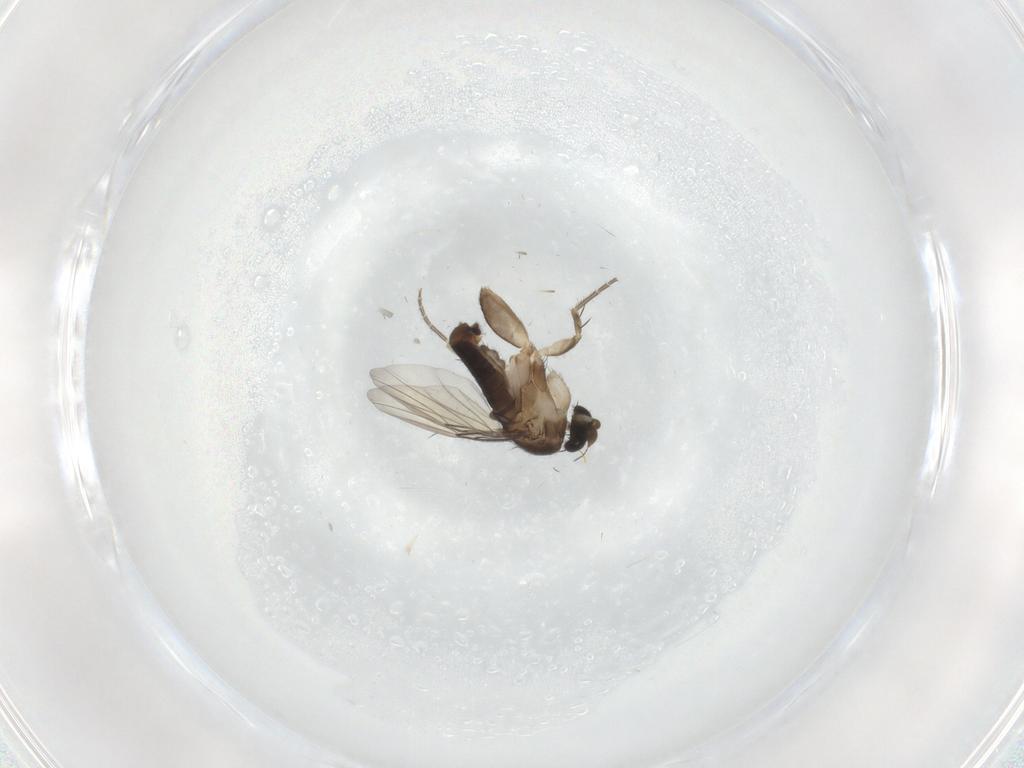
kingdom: Animalia
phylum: Arthropoda
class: Insecta
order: Diptera
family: Phoridae
